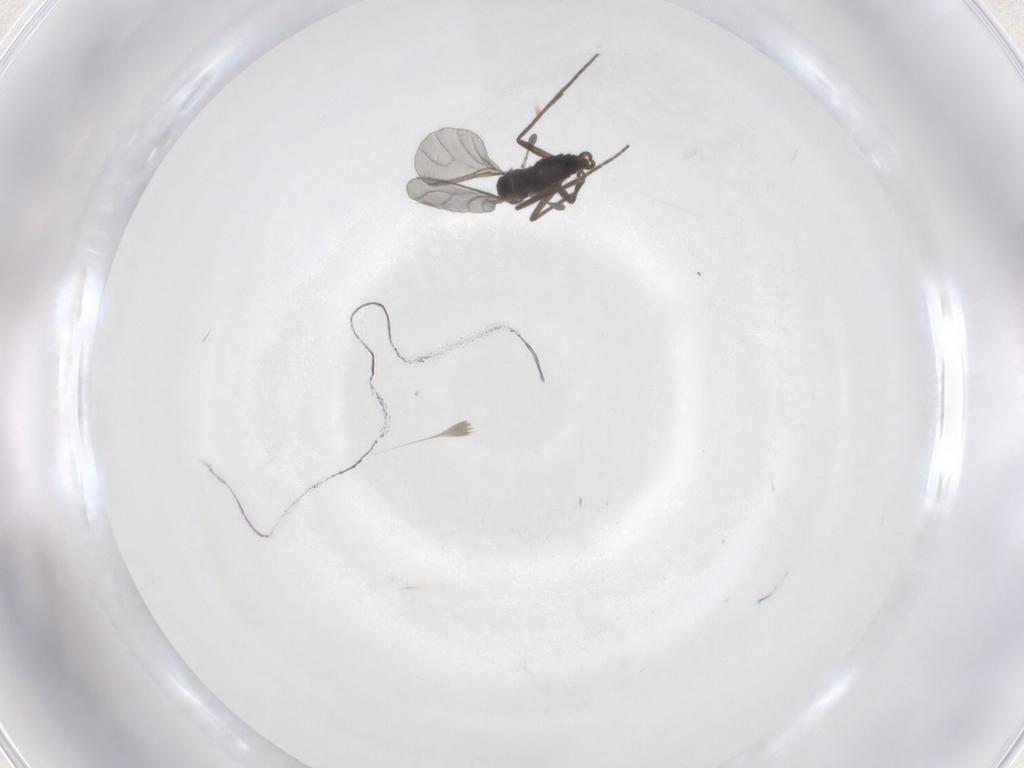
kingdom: Animalia
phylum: Arthropoda
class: Insecta
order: Diptera
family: Sciaridae
